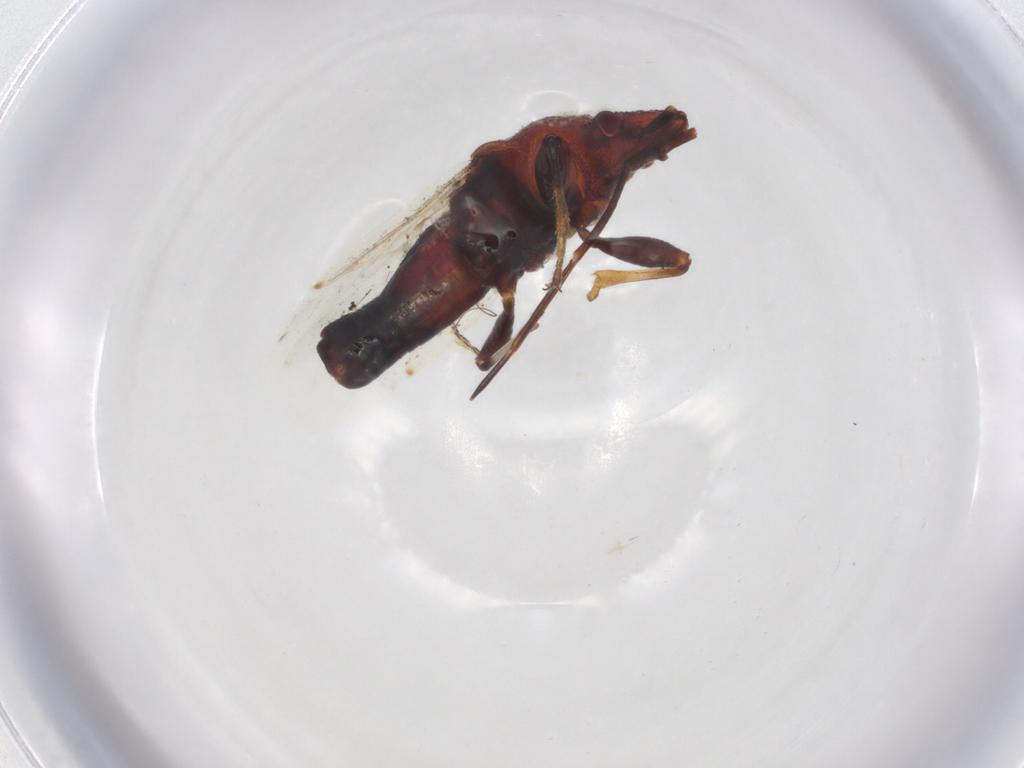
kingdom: Animalia
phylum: Arthropoda
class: Insecta
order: Hemiptera
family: Oxycarenidae
